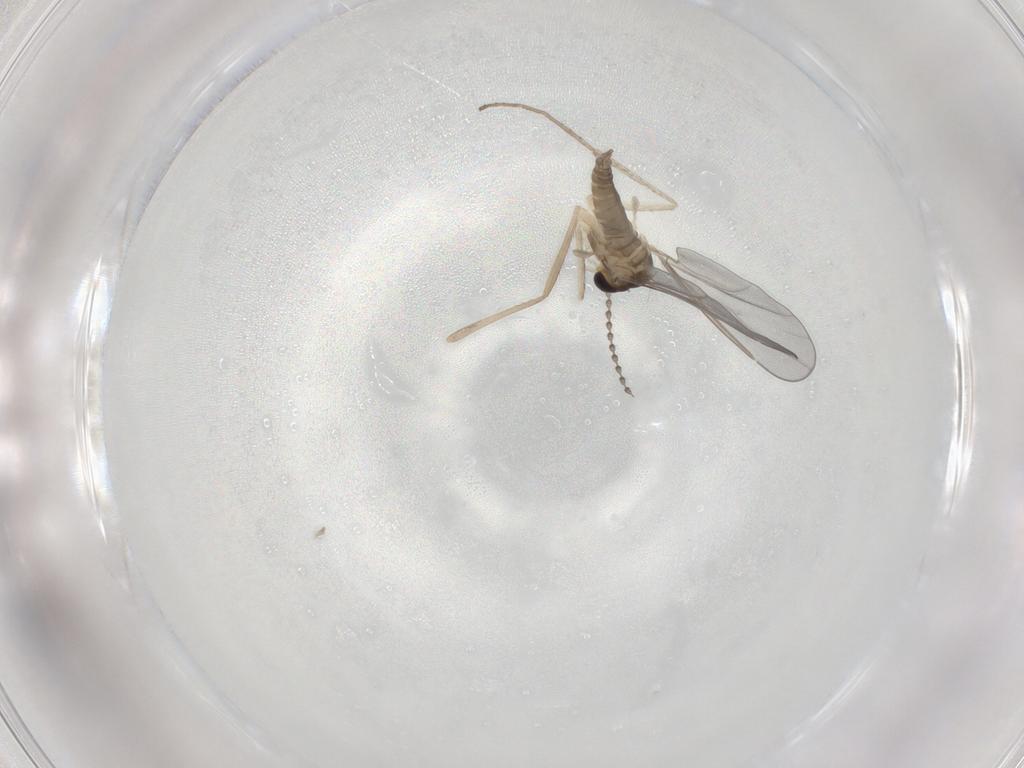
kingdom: Animalia
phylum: Arthropoda
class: Insecta
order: Diptera
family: Cecidomyiidae
